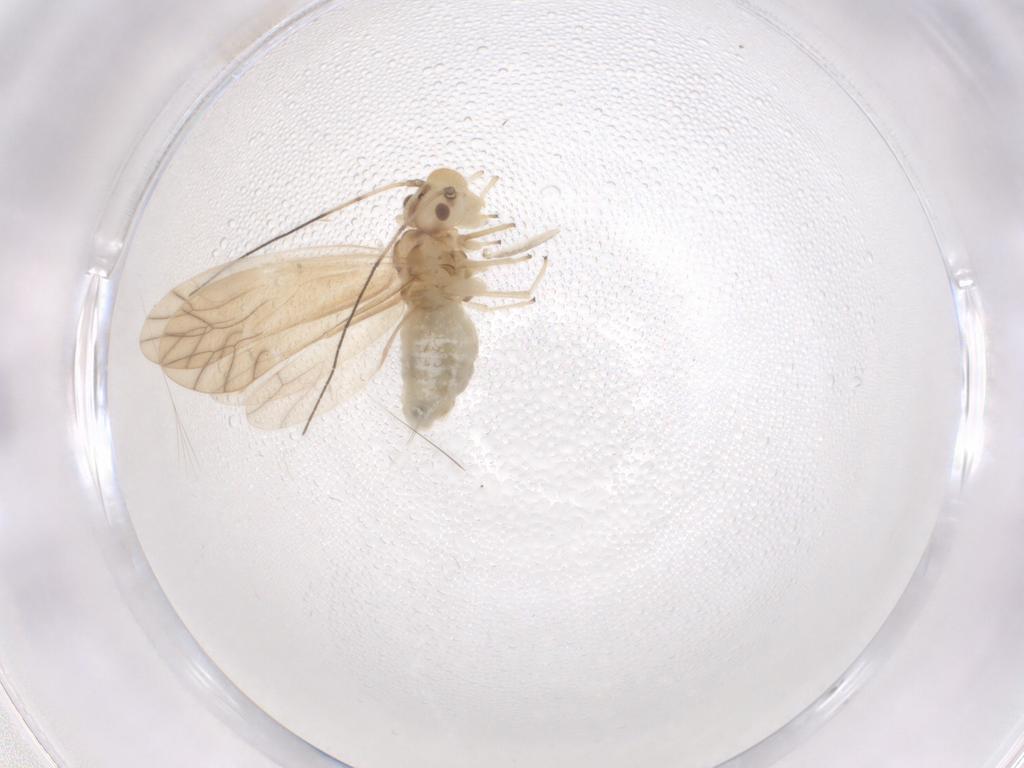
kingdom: Animalia
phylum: Arthropoda
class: Insecta
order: Psocodea
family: Caeciliusidae
